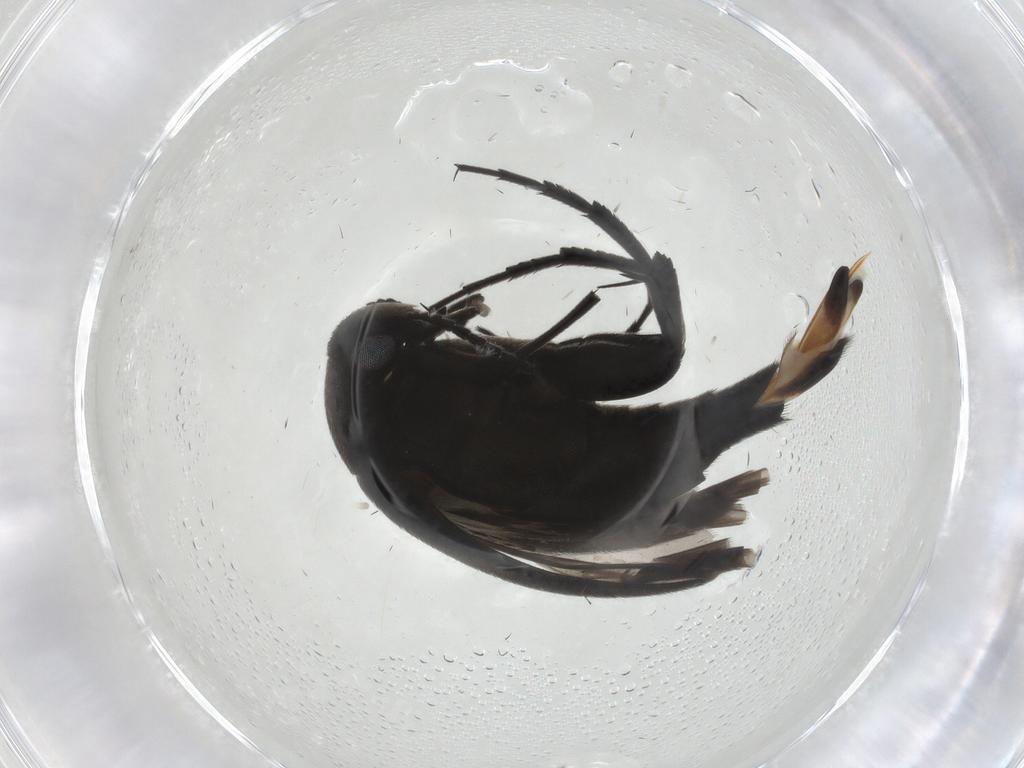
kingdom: Animalia
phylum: Arthropoda
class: Insecta
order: Coleoptera
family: Mordellidae
